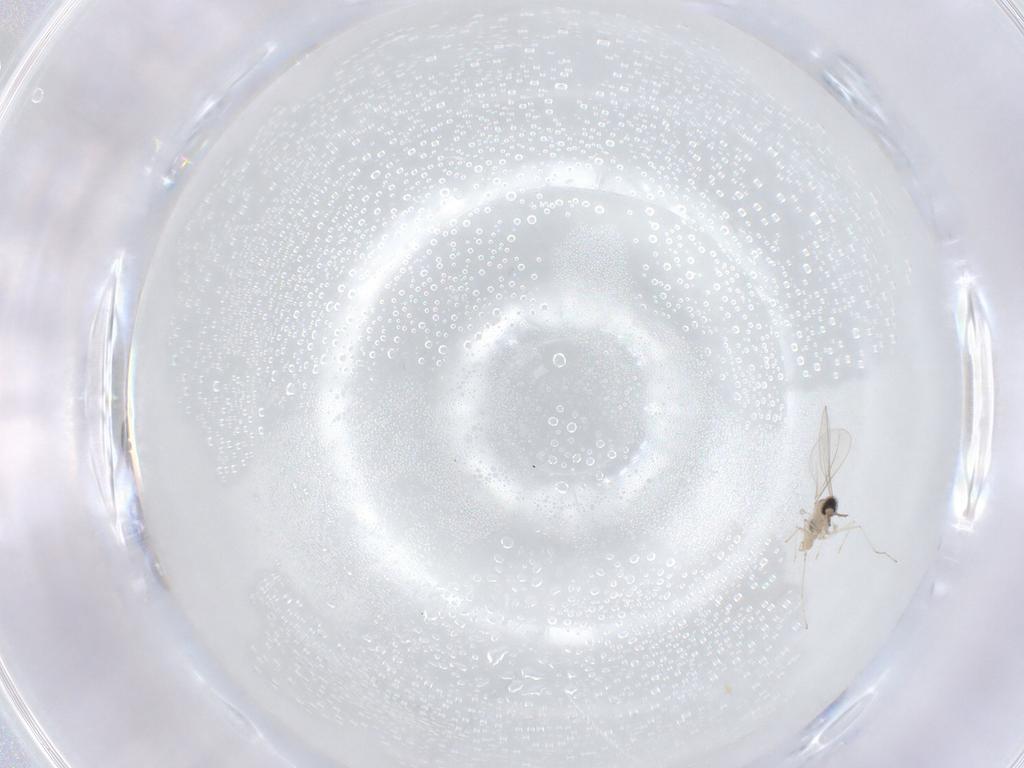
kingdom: Animalia
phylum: Arthropoda
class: Insecta
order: Diptera
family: Cecidomyiidae
